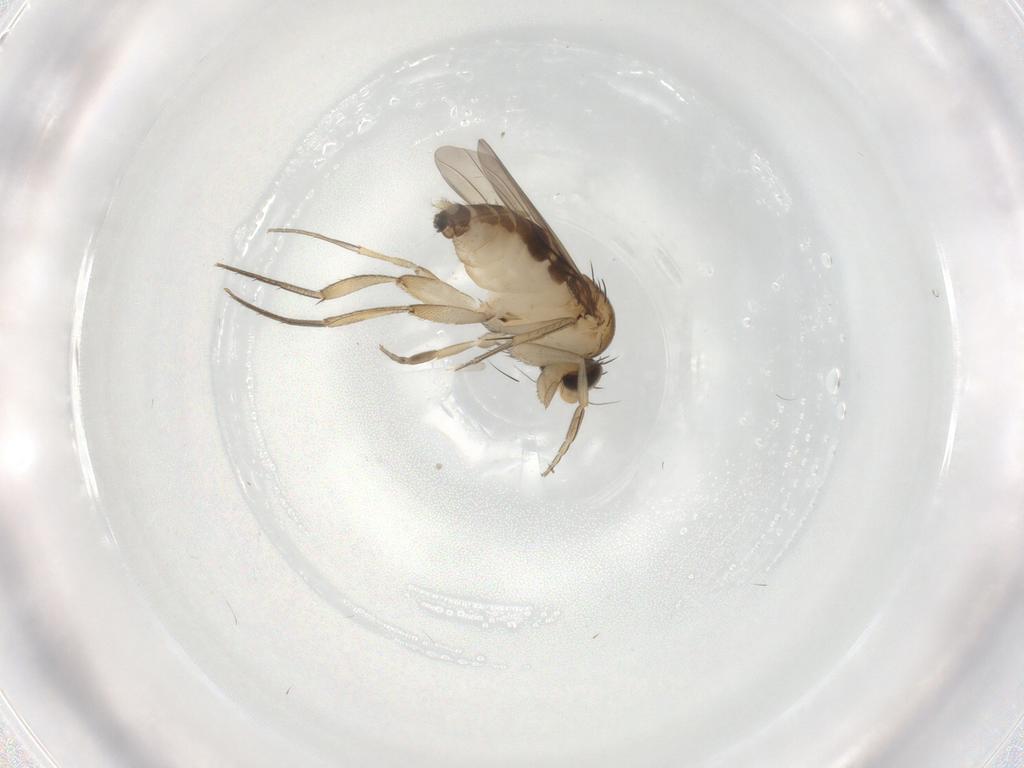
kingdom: Animalia
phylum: Arthropoda
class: Insecta
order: Diptera
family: Phoridae
